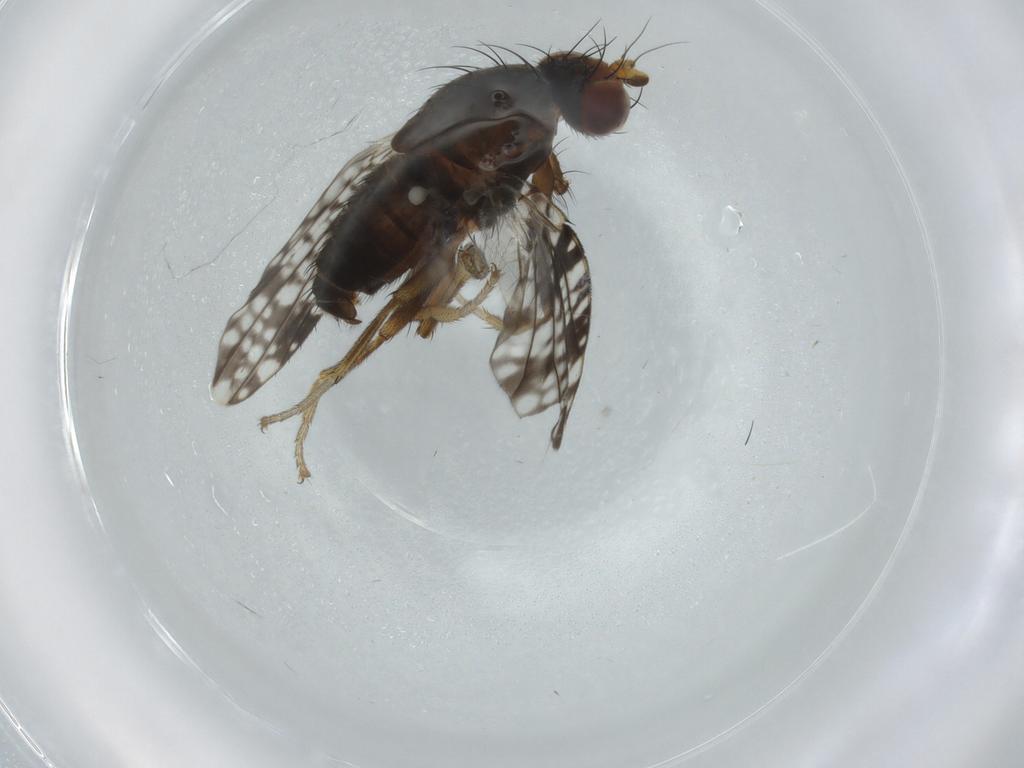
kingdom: Animalia
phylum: Arthropoda
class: Insecta
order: Diptera
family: Tephritidae
